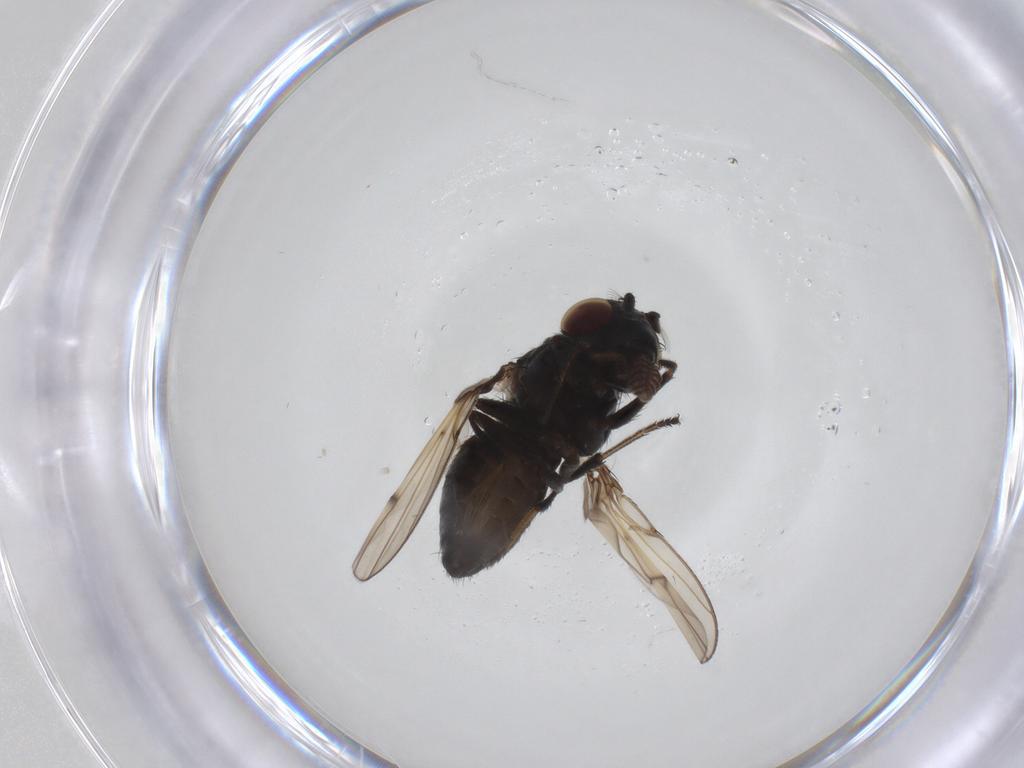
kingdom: Animalia
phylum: Arthropoda
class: Insecta
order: Diptera
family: Ephydridae
